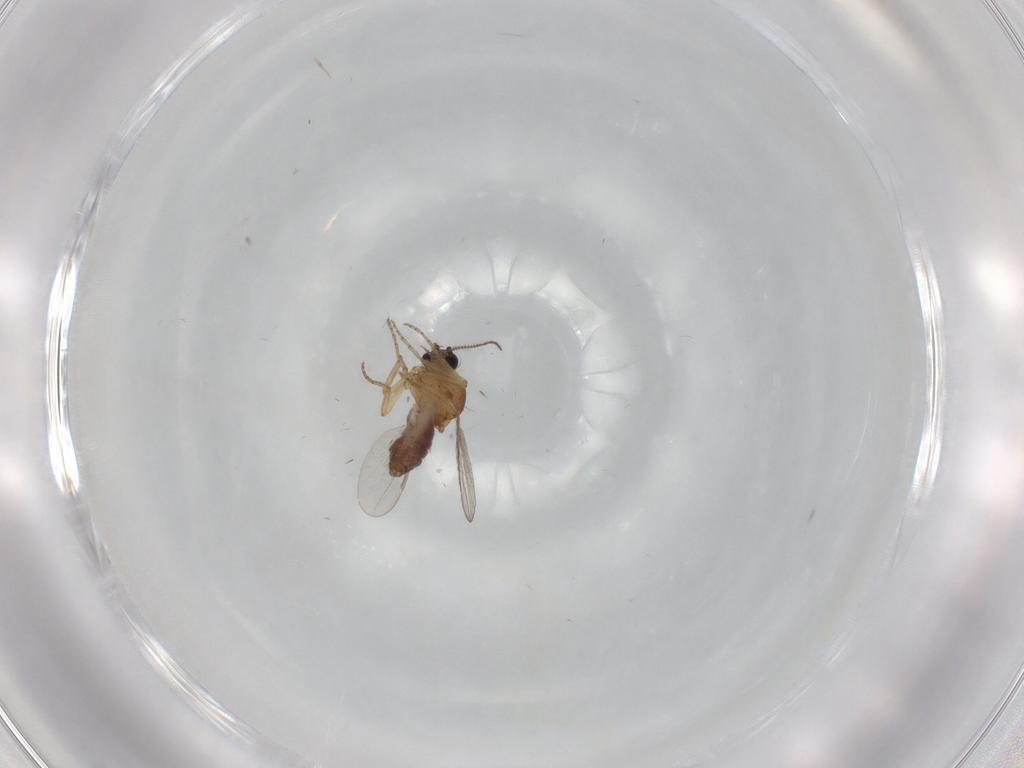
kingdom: Animalia
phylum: Arthropoda
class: Insecta
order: Diptera
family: Ceratopogonidae
